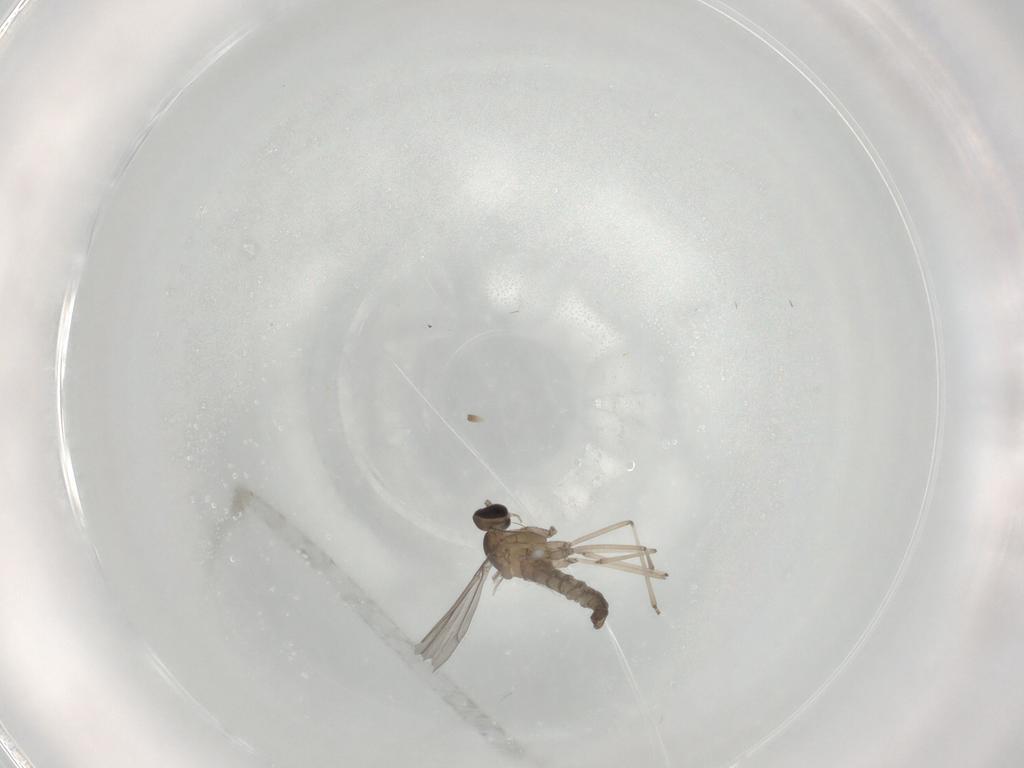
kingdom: Animalia
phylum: Arthropoda
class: Insecta
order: Diptera
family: Cecidomyiidae
